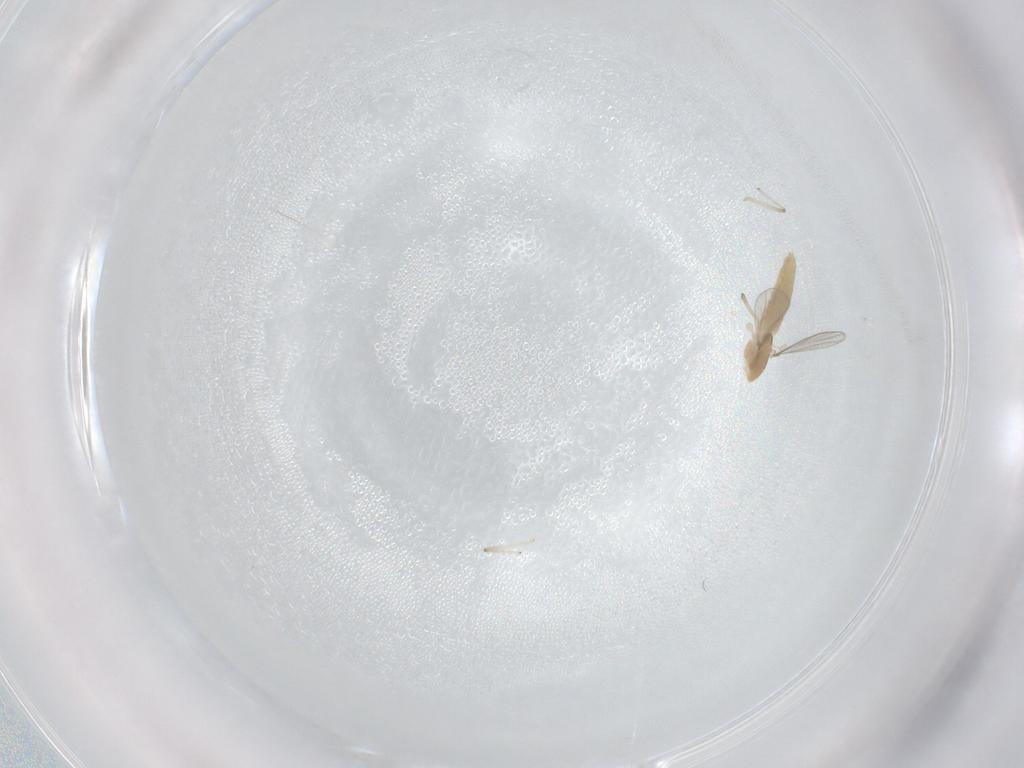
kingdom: Animalia
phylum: Arthropoda
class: Insecta
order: Diptera
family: Chironomidae
